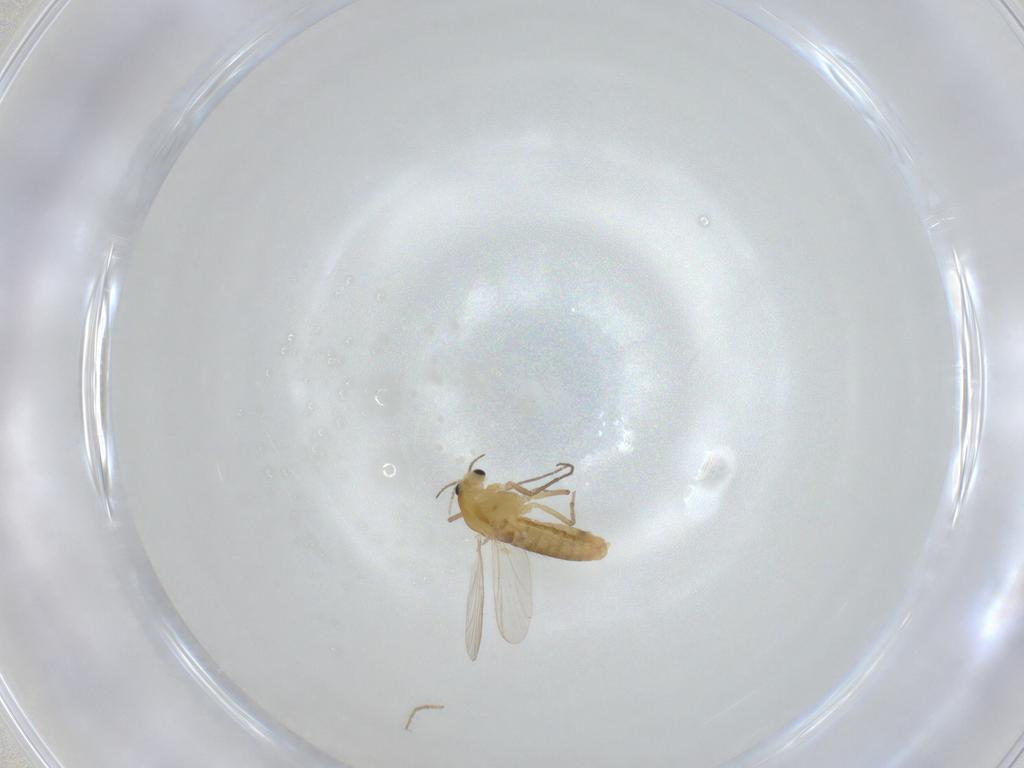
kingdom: Animalia
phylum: Arthropoda
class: Insecta
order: Diptera
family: Chironomidae
